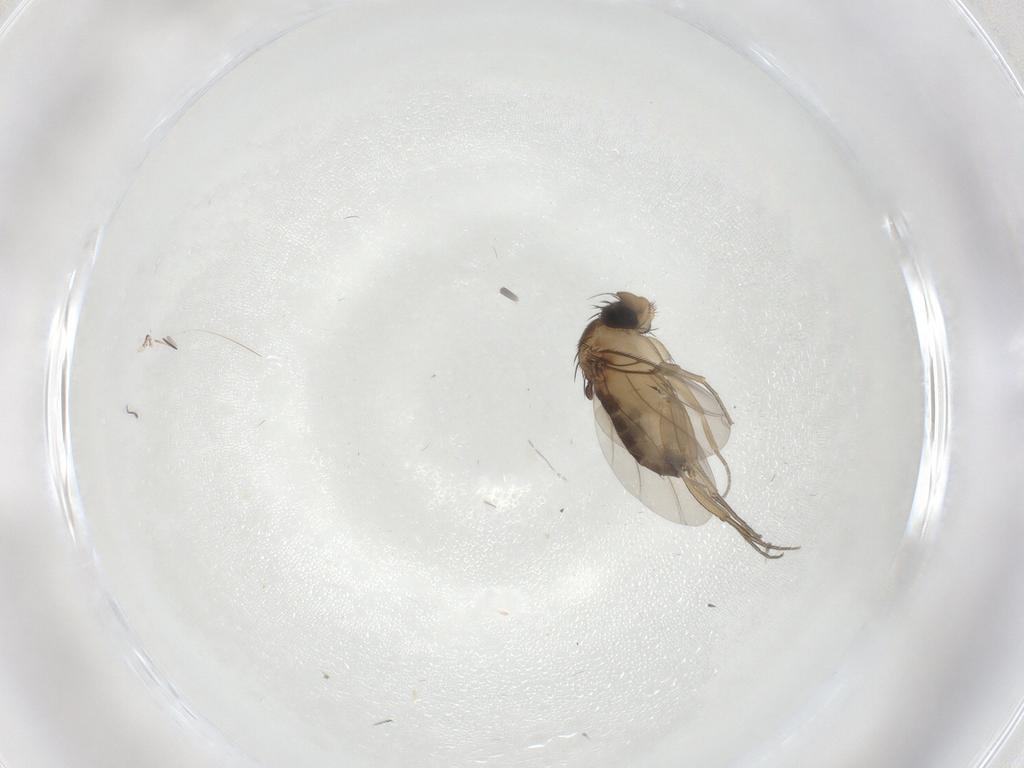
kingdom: Animalia
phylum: Arthropoda
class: Insecta
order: Diptera
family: Phoridae
